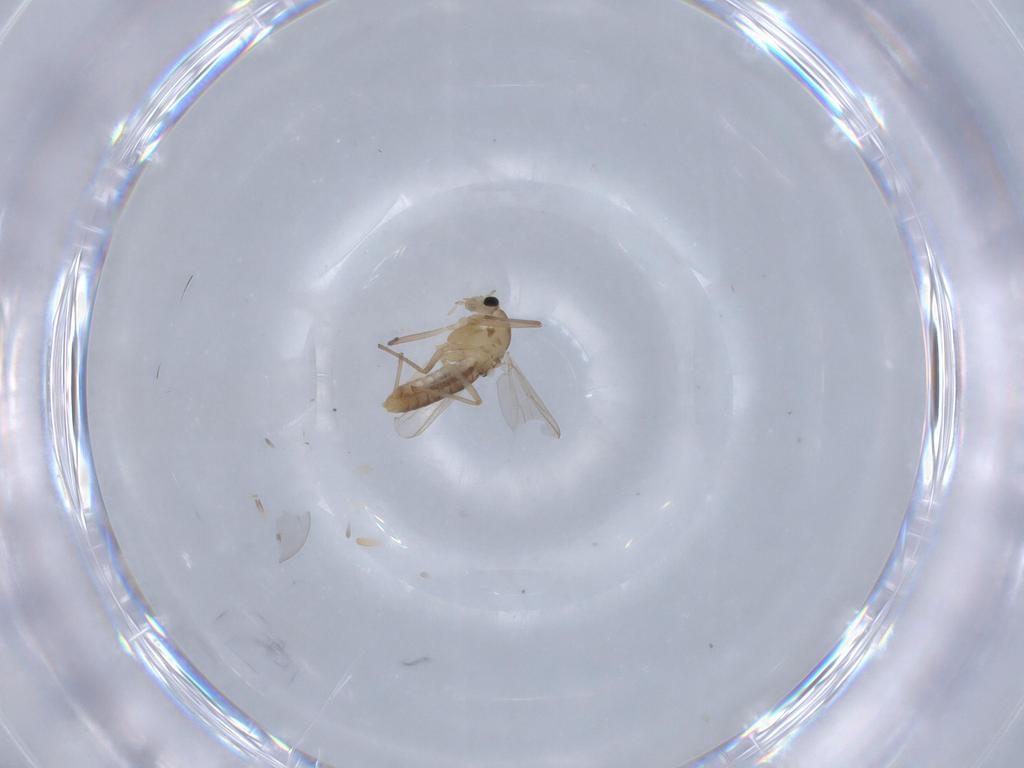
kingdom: Animalia
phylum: Arthropoda
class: Insecta
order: Diptera
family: Chironomidae
